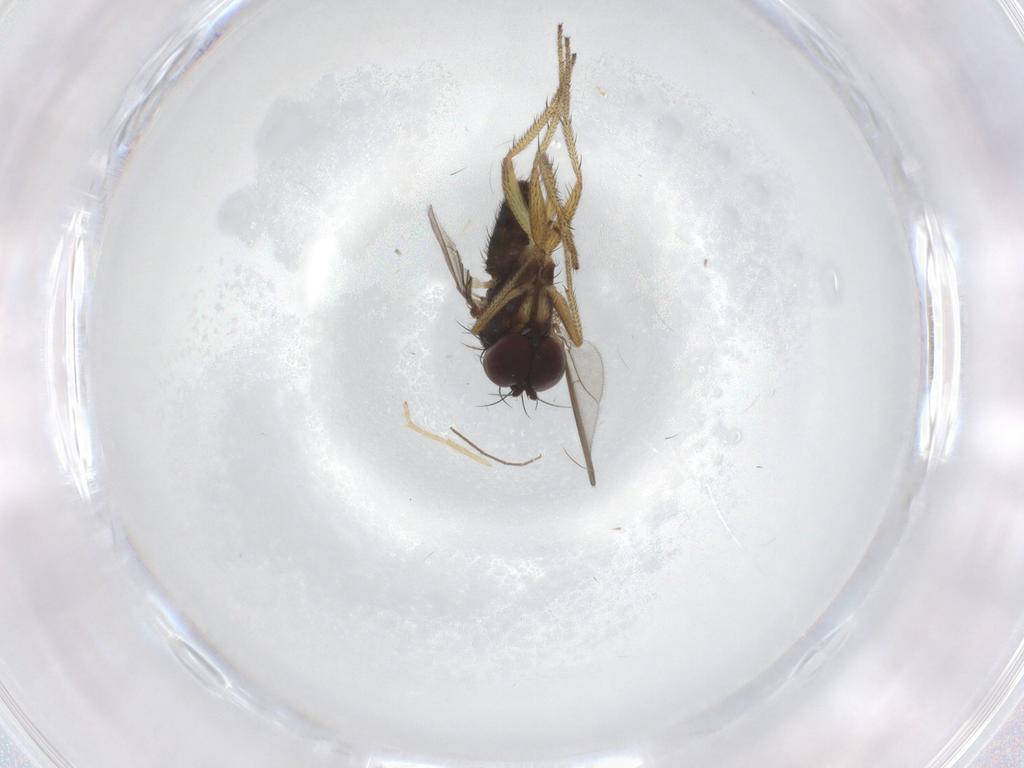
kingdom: Animalia
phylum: Arthropoda
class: Insecta
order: Diptera
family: Dolichopodidae
